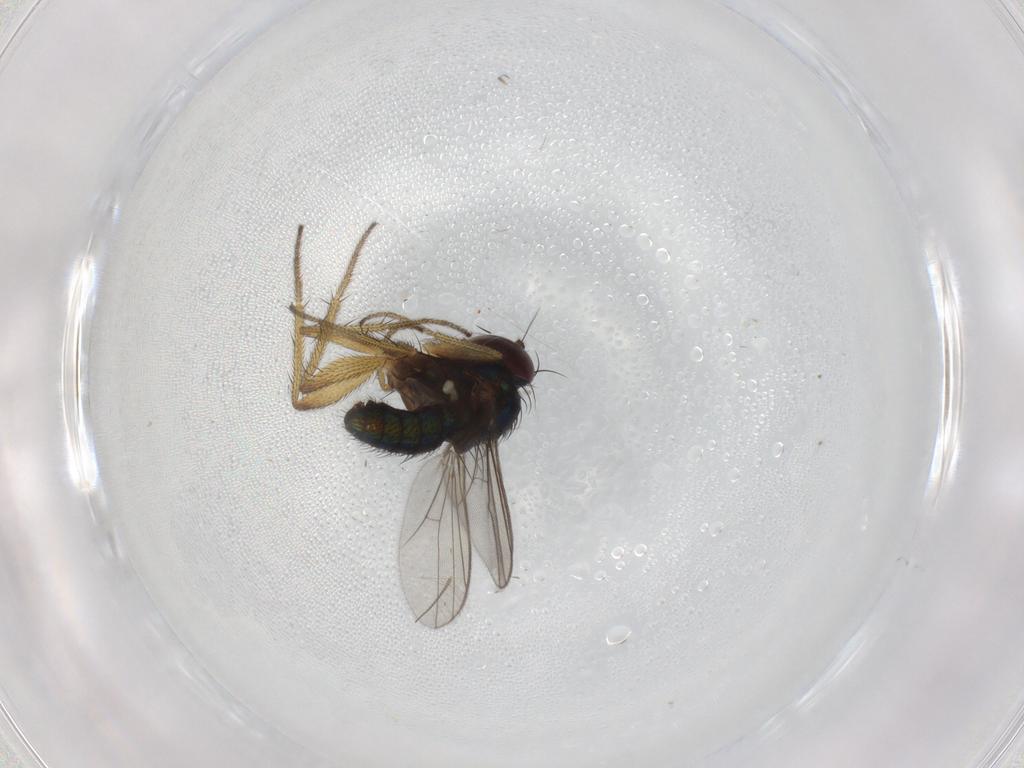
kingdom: Animalia
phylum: Arthropoda
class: Insecta
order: Diptera
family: Dolichopodidae
